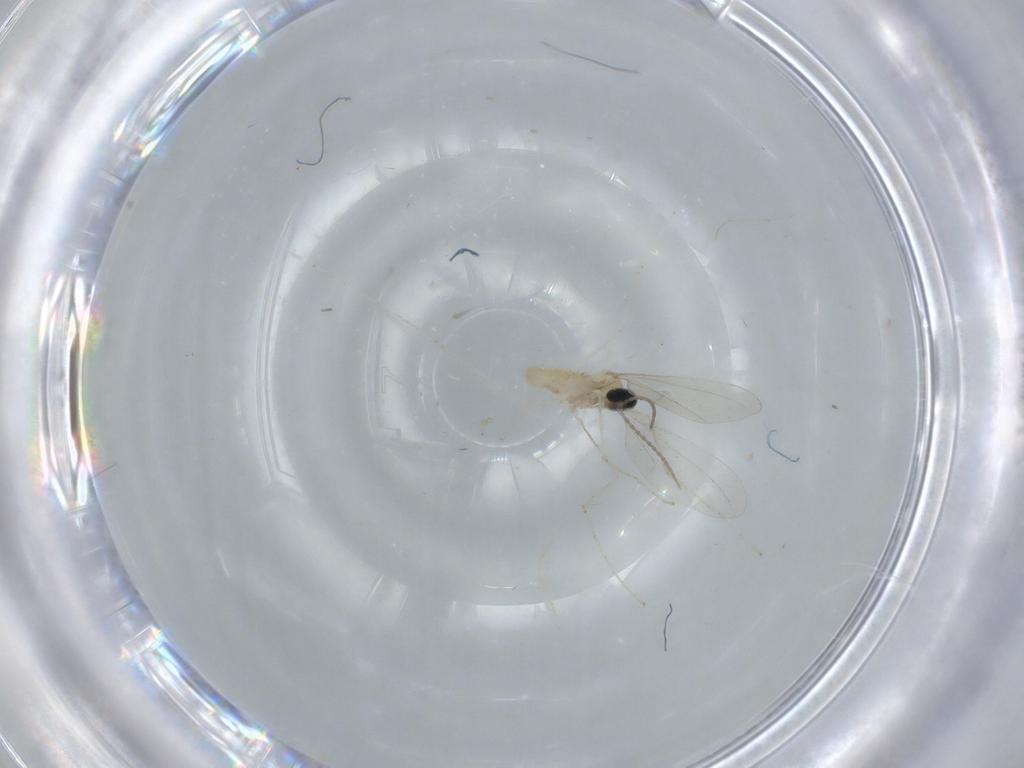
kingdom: Animalia
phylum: Arthropoda
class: Insecta
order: Diptera
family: Cecidomyiidae
